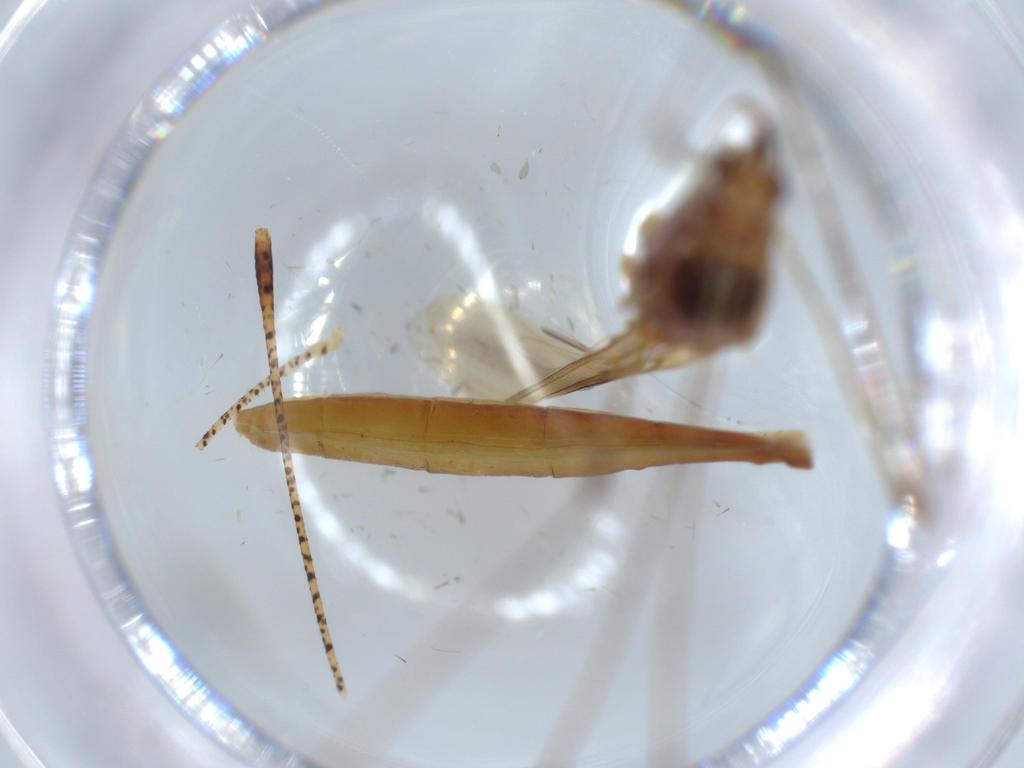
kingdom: Animalia
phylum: Arthropoda
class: Insecta
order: Hemiptera
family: Berytidae
